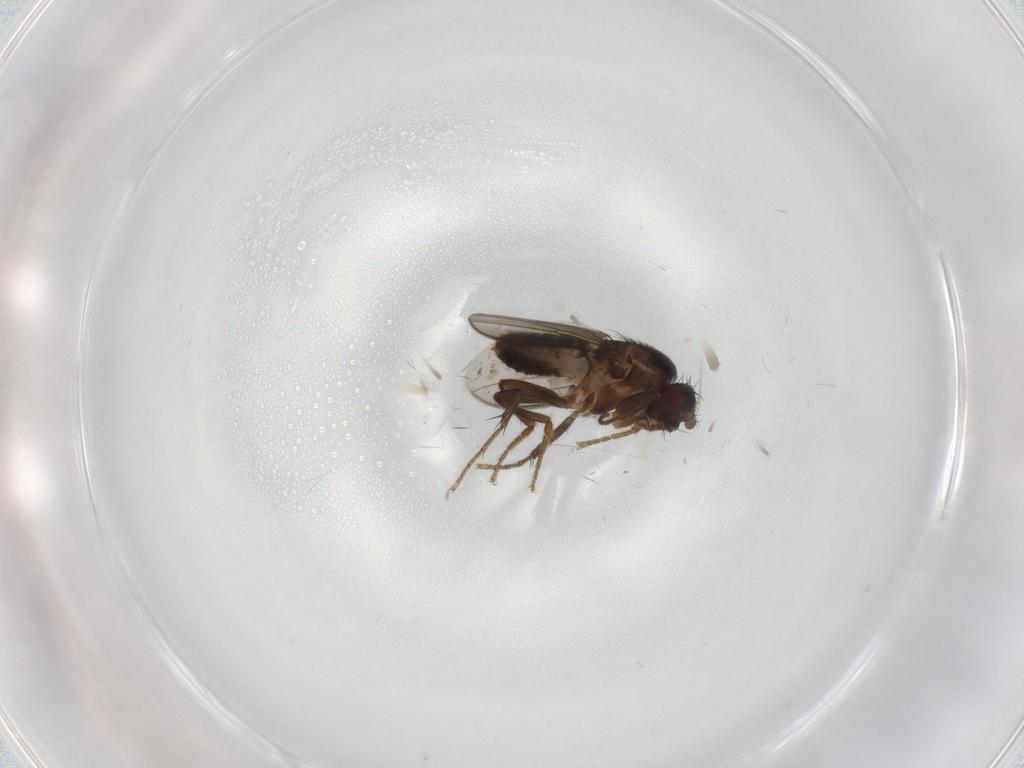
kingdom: Animalia
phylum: Arthropoda
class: Insecta
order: Diptera
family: Sphaeroceridae
